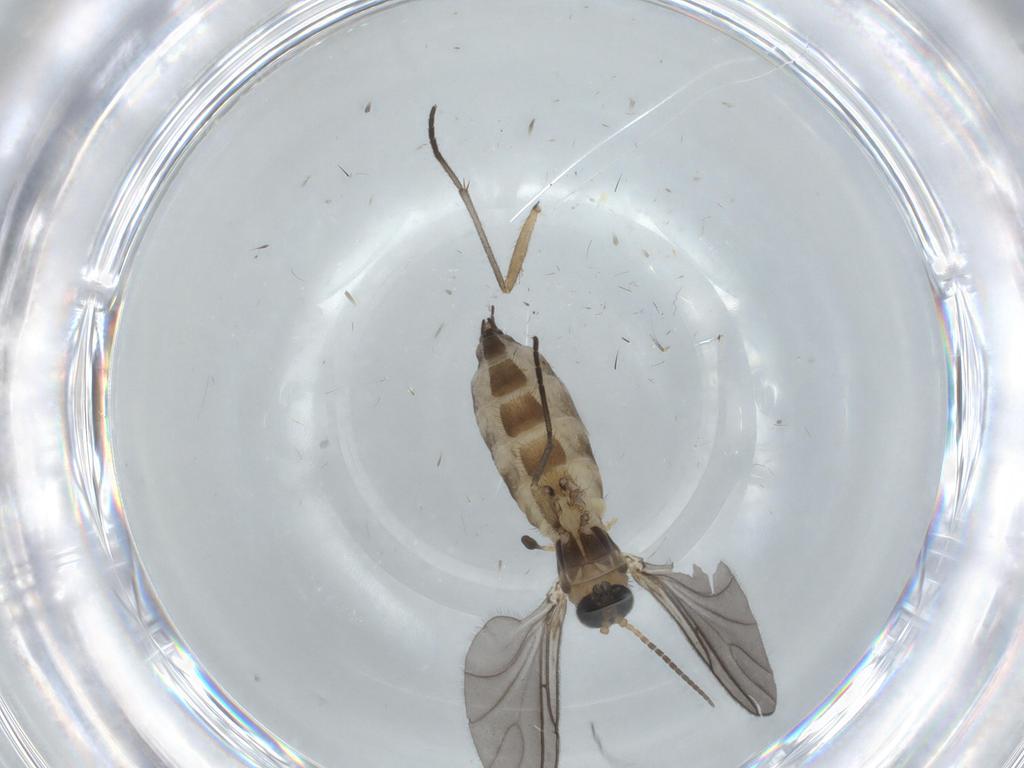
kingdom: Animalia
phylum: Arthropoda
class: Insecta
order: Diptera
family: Sciaridae
